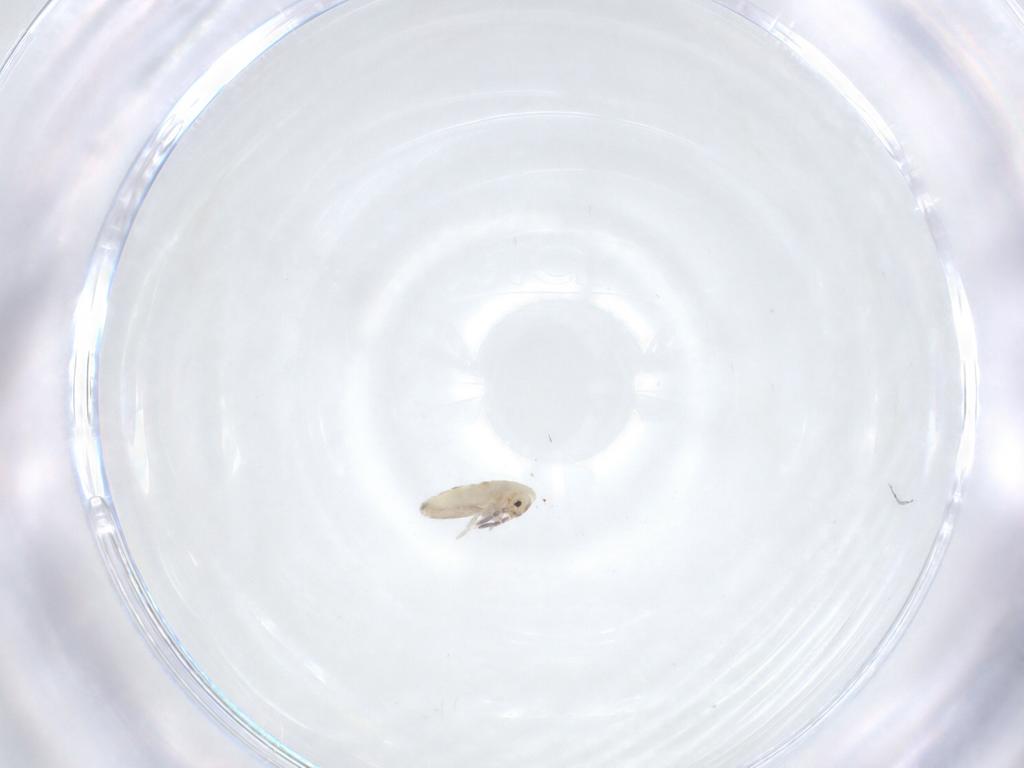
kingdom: Animalia
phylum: Arthropoda
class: Collembola
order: Entomobryomorpha
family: Entomobryidae
